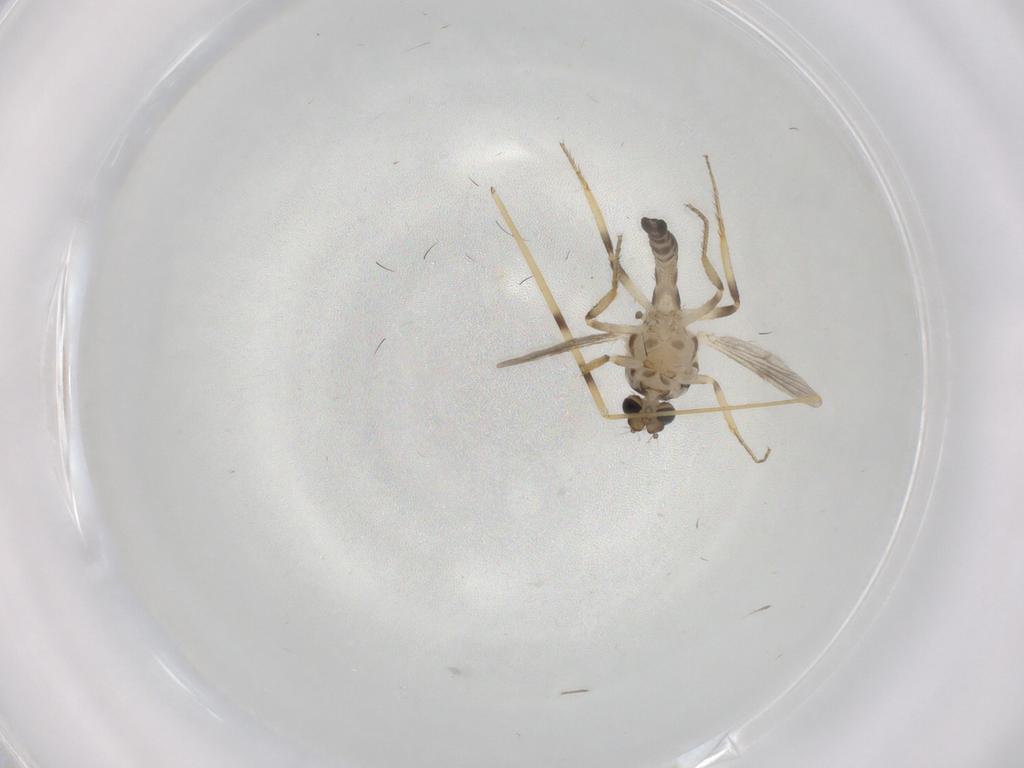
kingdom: Animalia
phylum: Arthropoda
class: Insecta
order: Diptera
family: Ceratopogonidae
